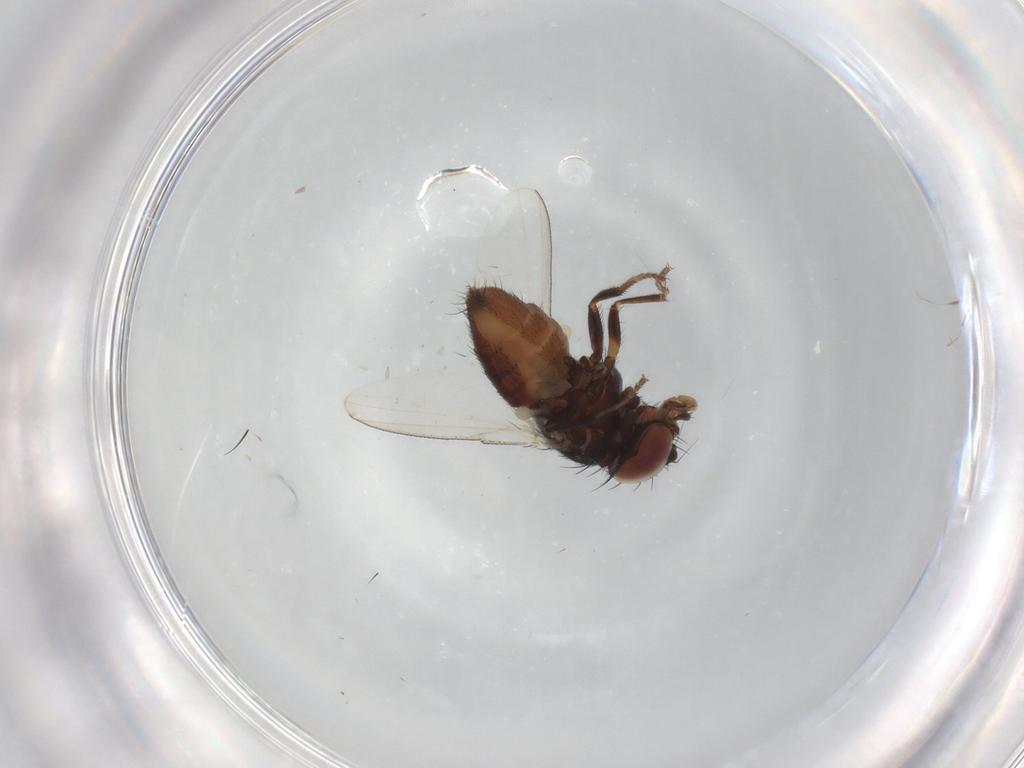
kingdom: Animalia
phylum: Arthropoda
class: Insecta
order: Diptera
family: Milichiidae
